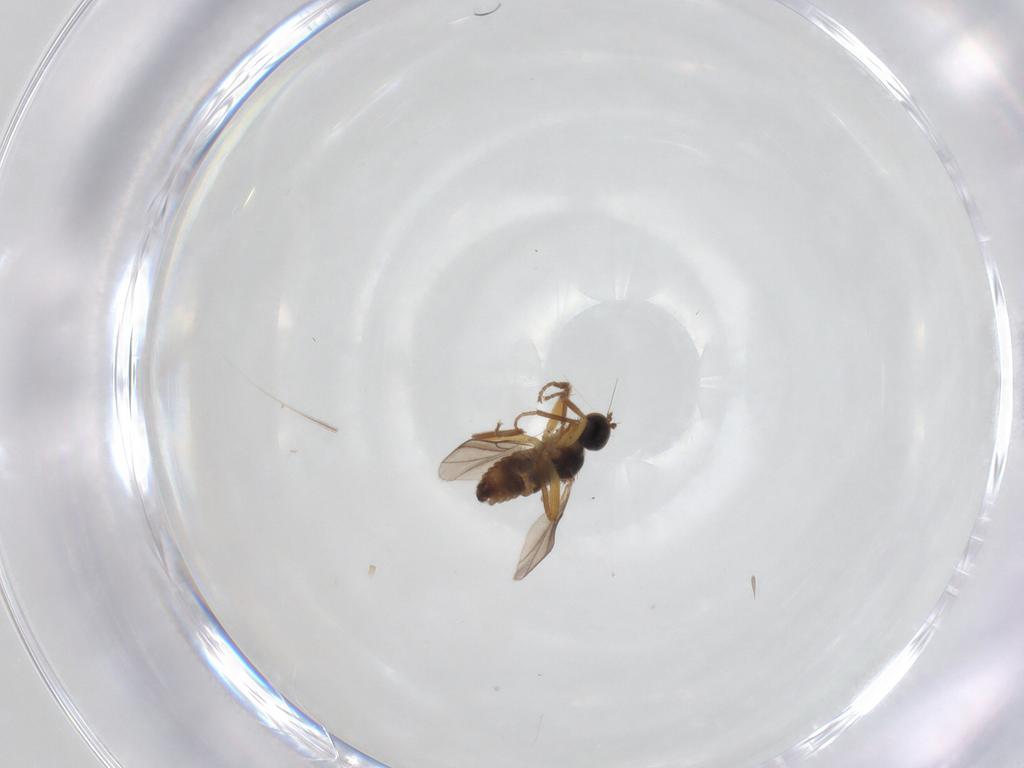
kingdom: Animalia
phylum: Arthropoda
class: Insecta
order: Diptera
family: Hybotidae
